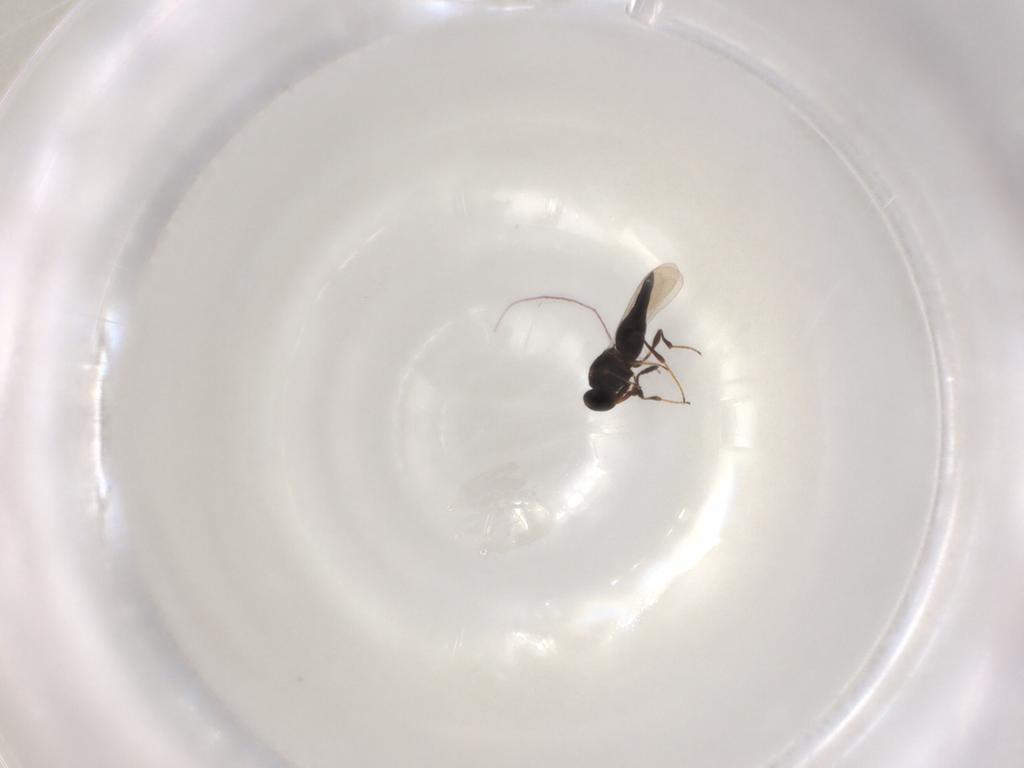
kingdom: Animalia
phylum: Arthropoda
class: Insecta
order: Hymenoptera
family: Platygastridae
